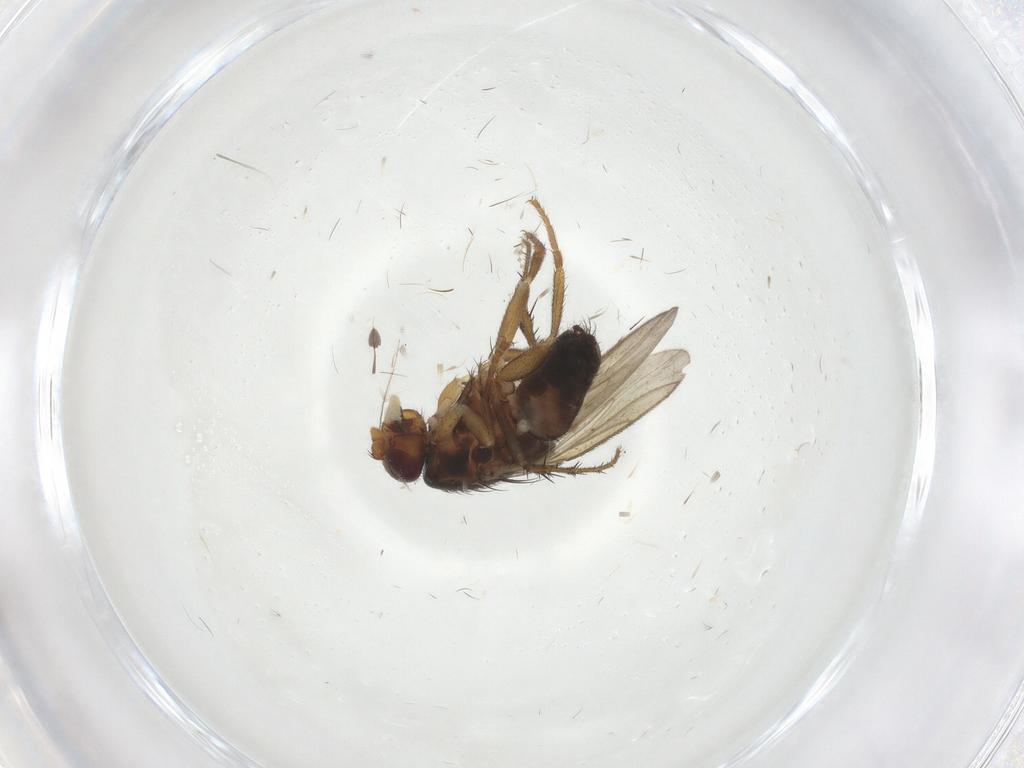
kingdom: Animalia
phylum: Arthropoda
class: Insecta
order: Diptera
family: Sphaeroceridae
